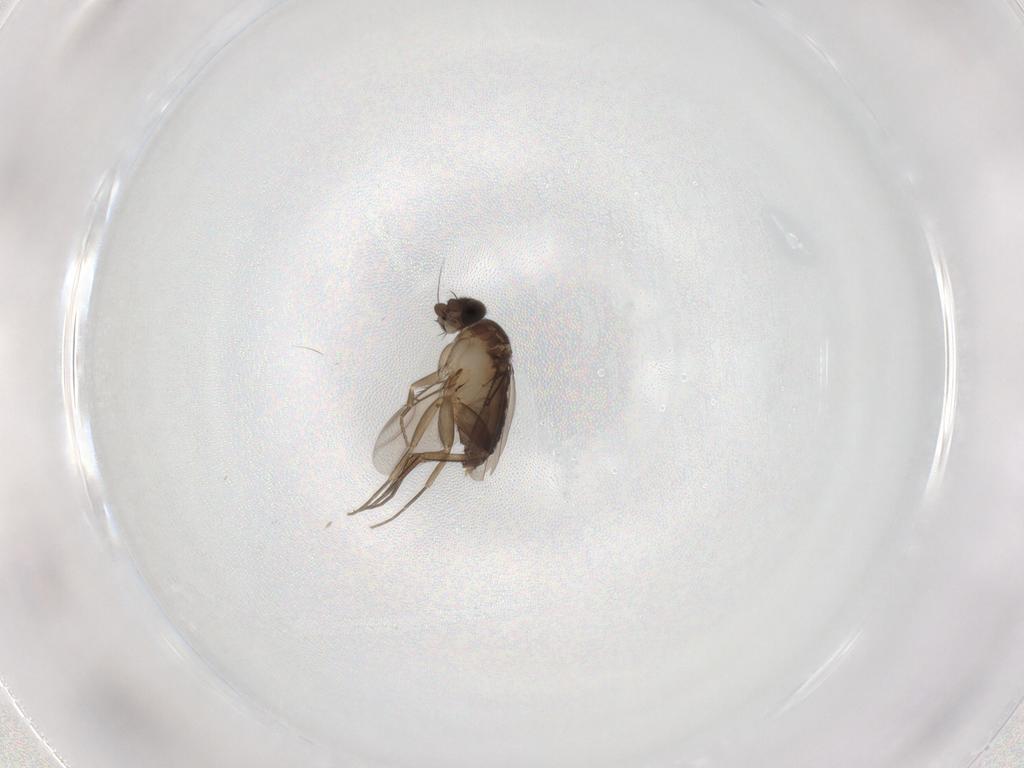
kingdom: Animalia
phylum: Arthropoda
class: Insecta
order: Diptera
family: Phoridae
